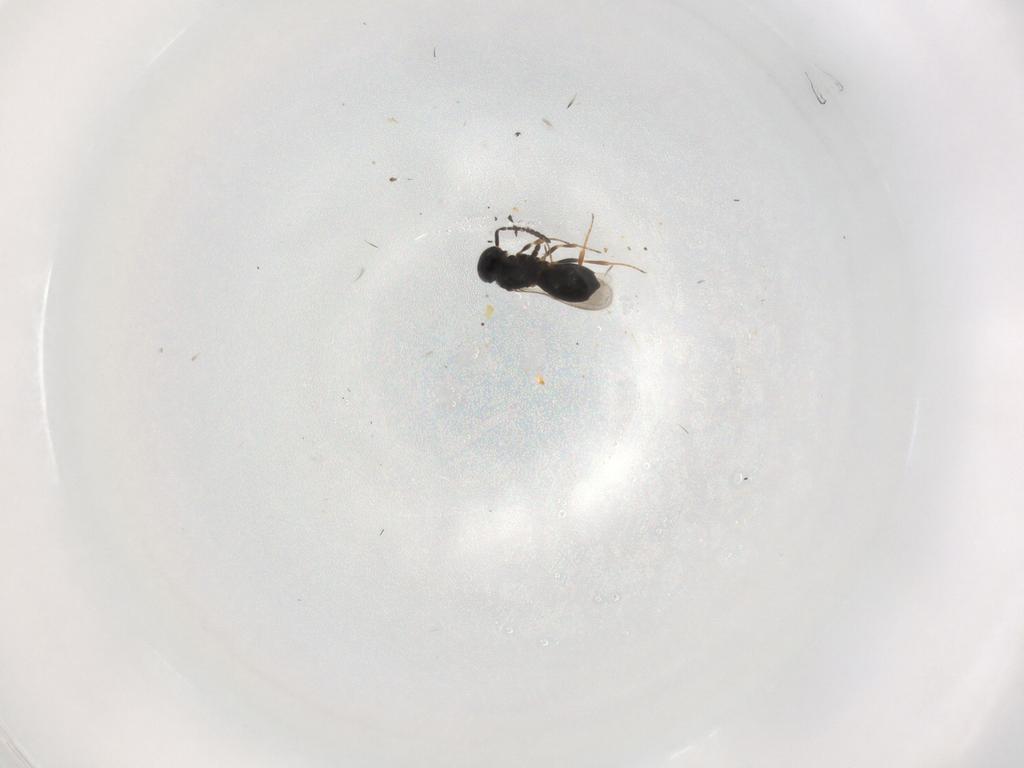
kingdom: Animalia
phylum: Arthropoda
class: Insecta
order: Hymenoptera
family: Scelionidae
